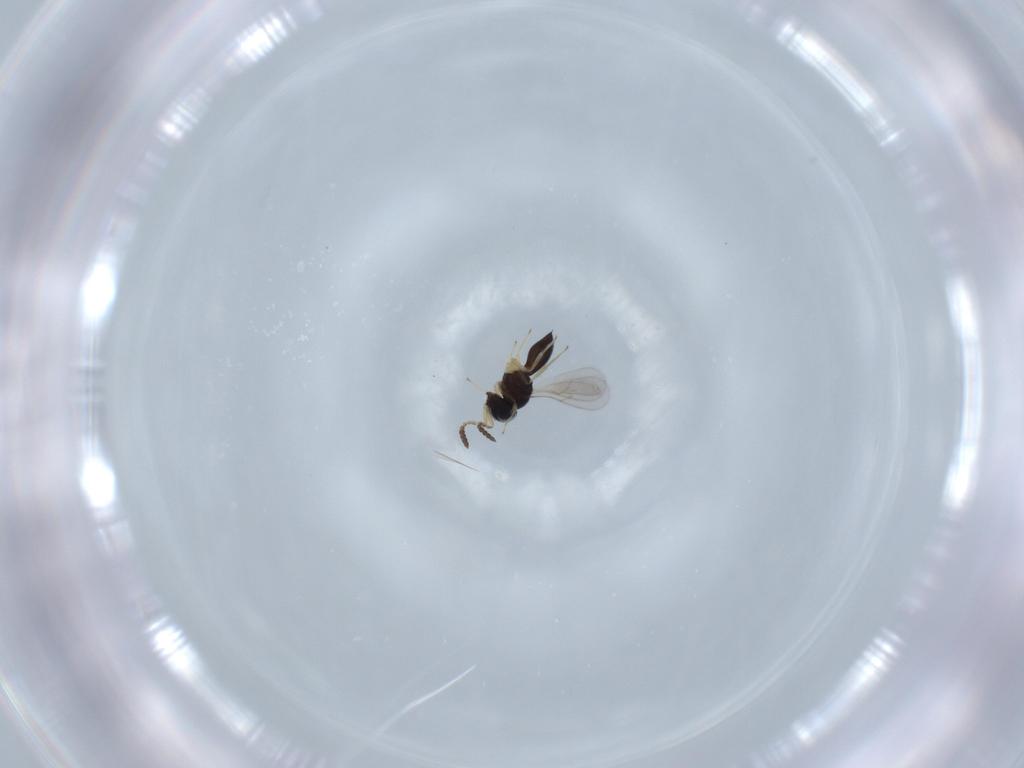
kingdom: Animalia
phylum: Arthropoda
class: Insecta
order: Hymenoptera
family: Scelionidae
